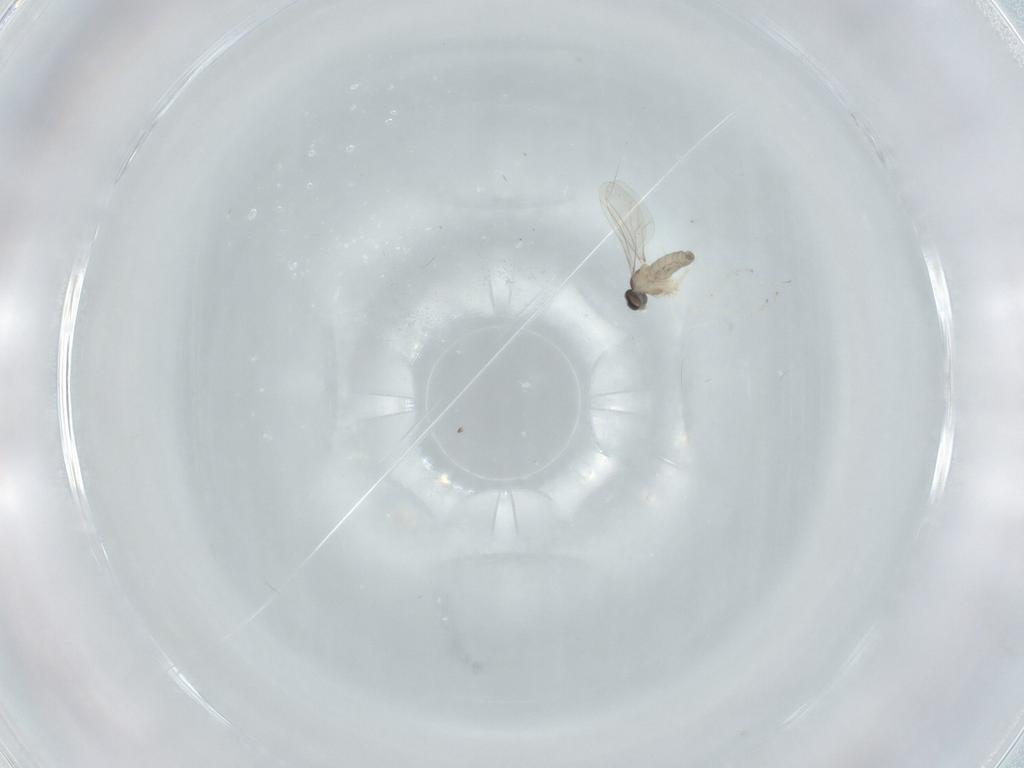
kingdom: Animalia
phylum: Arthropoda
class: Insecta
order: Diptera
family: Cecidomyiidae
